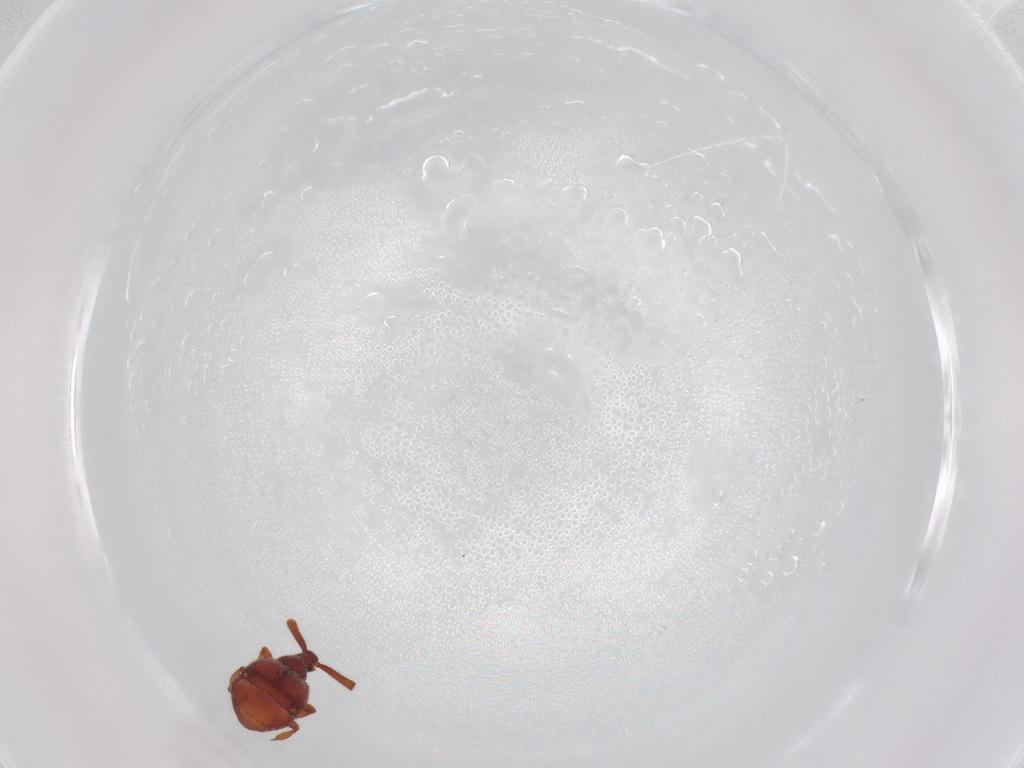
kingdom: Animalia
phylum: Arthropoda
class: Insecta
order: Coleoptera
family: Staphylinidae
